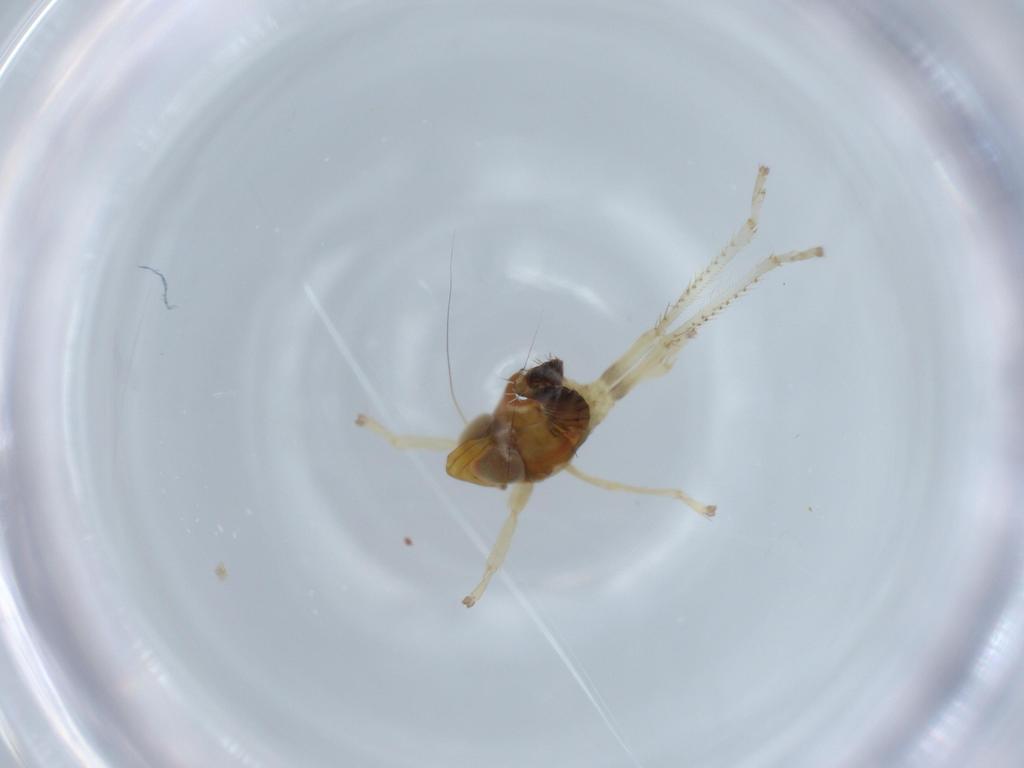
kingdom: Animalia
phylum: Arthropoda
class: Insecta
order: Hemiptera
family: Cicadellidae
